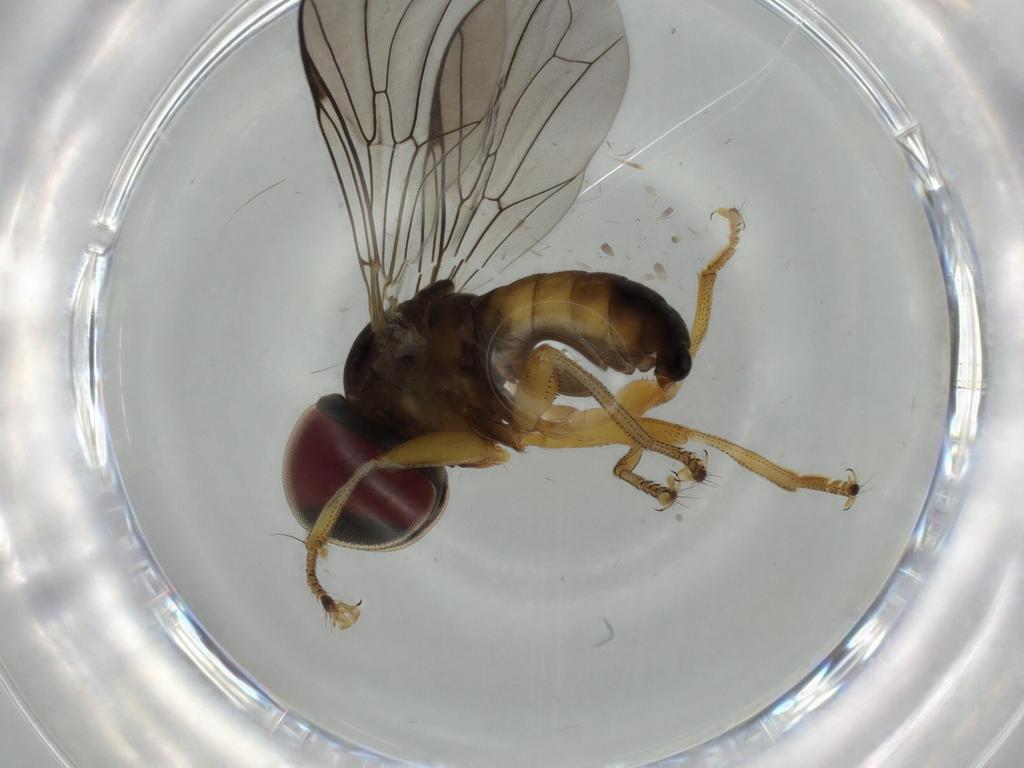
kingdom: Animalia
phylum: Arthropoda
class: Insecta
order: Diptera
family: Pipunculidae
